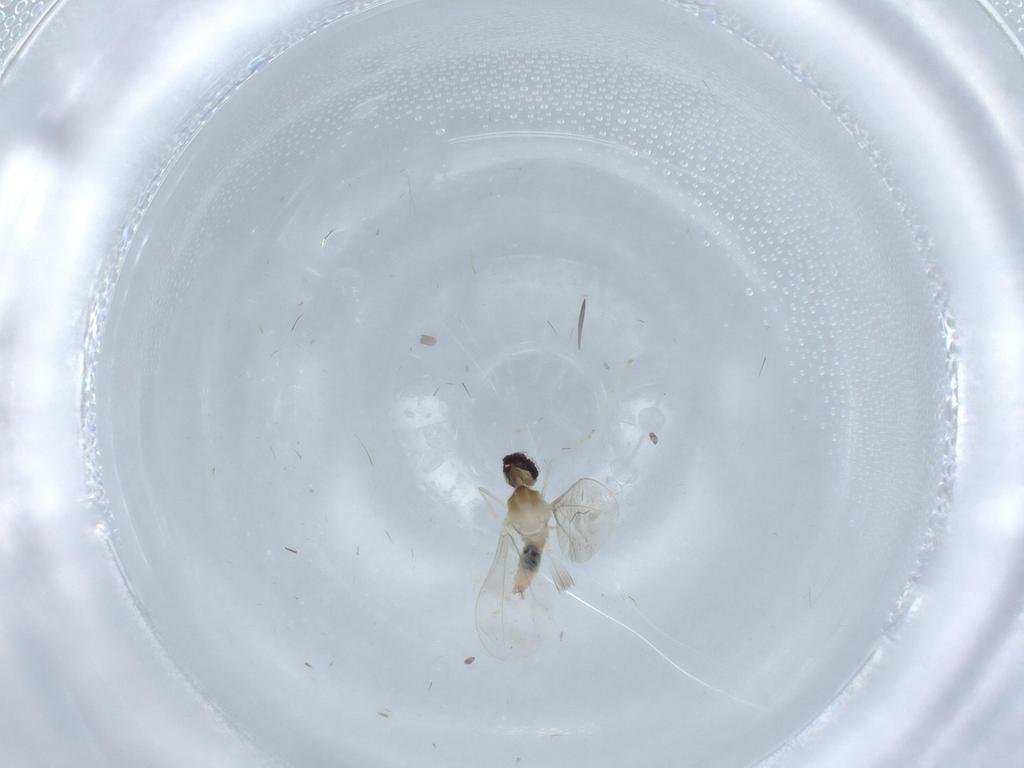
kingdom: Animalia
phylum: Arthropoda
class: Insecta
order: Diptera
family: Cecidomyiidae
